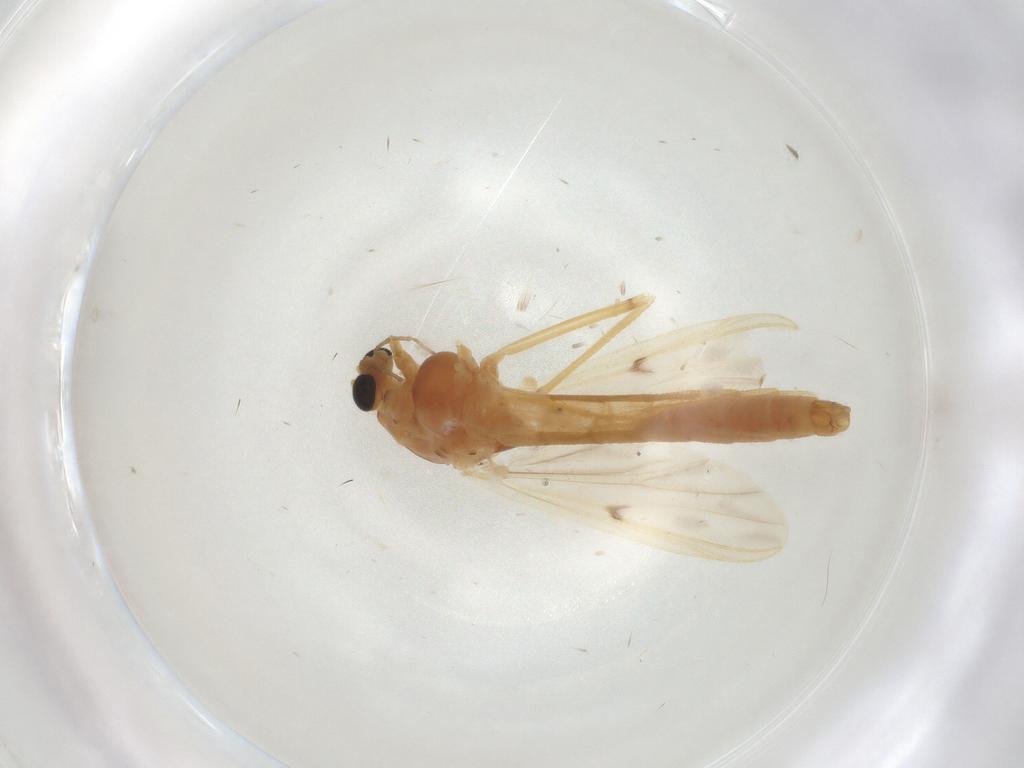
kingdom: Animalia
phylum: Arthropoda
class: Insecta
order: Diptera
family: Chironomidae
